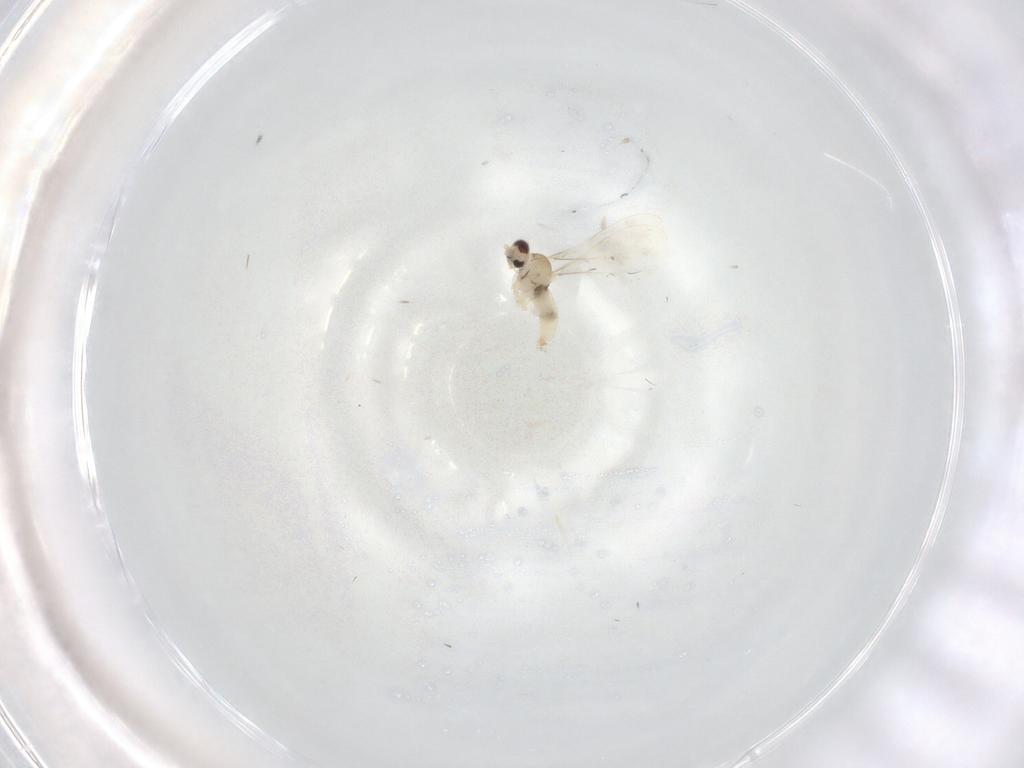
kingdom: Animalia
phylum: Arthropoda
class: Insecta
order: Diptera
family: Cecidomyiidae
